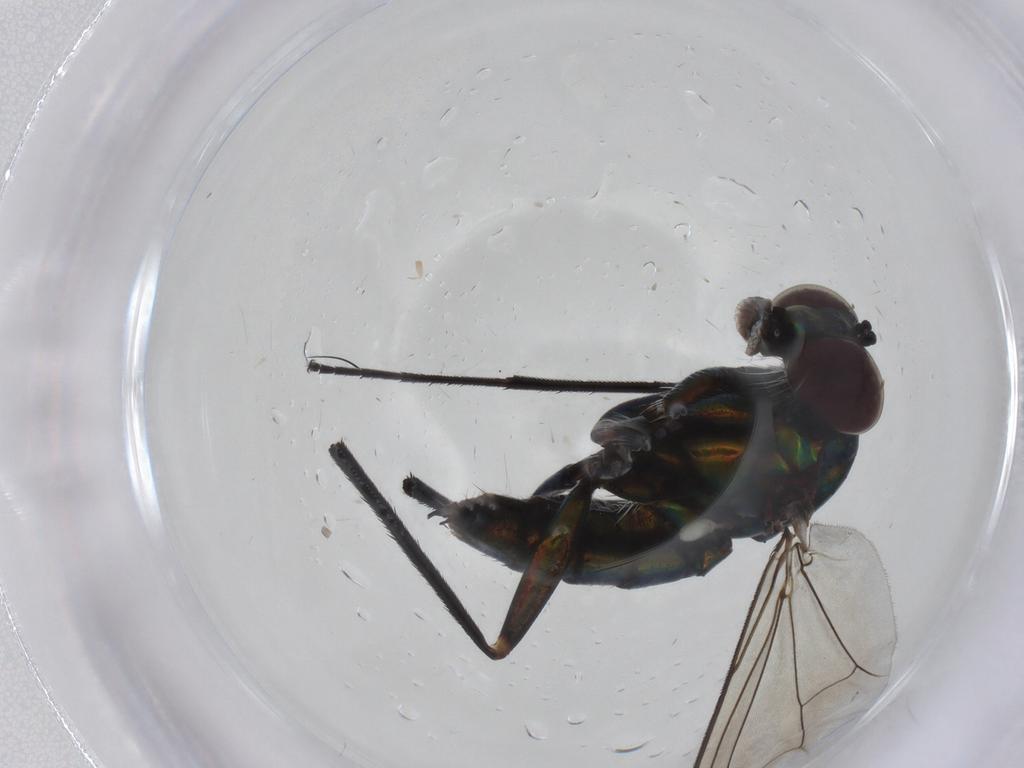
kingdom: Animalia
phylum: Arthropoda
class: Insecta
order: Diptera
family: Dolichopodidae
